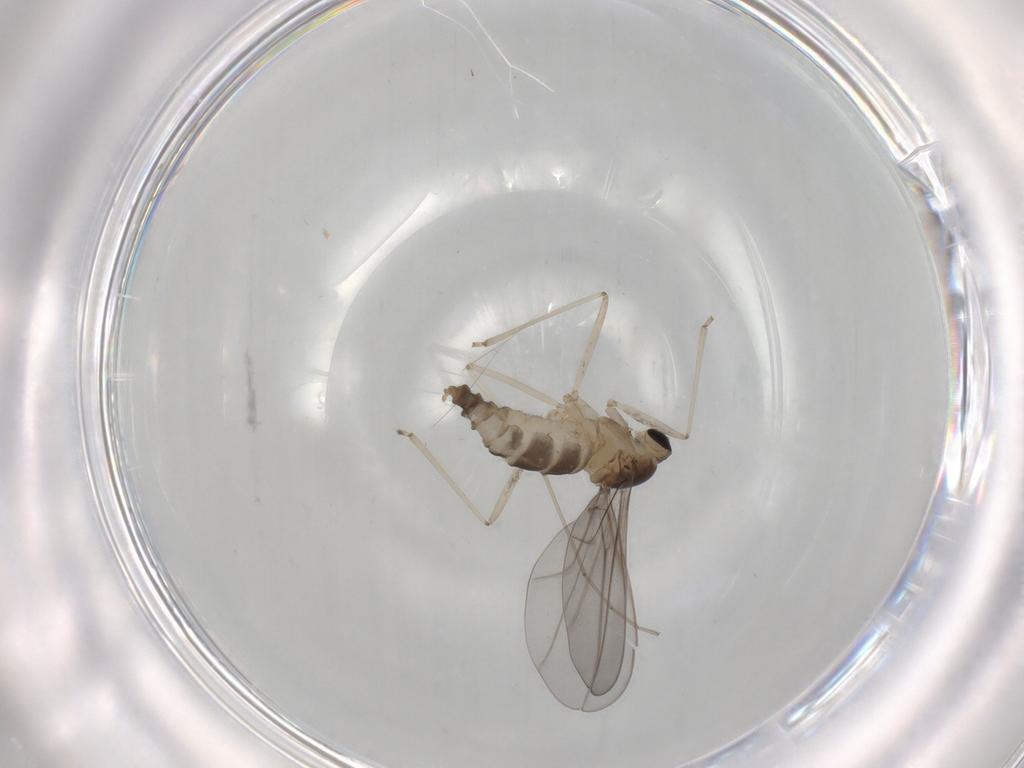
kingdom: Animalia
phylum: Arthropoda
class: Insecta
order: Diptera
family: Cecidomyiidae
